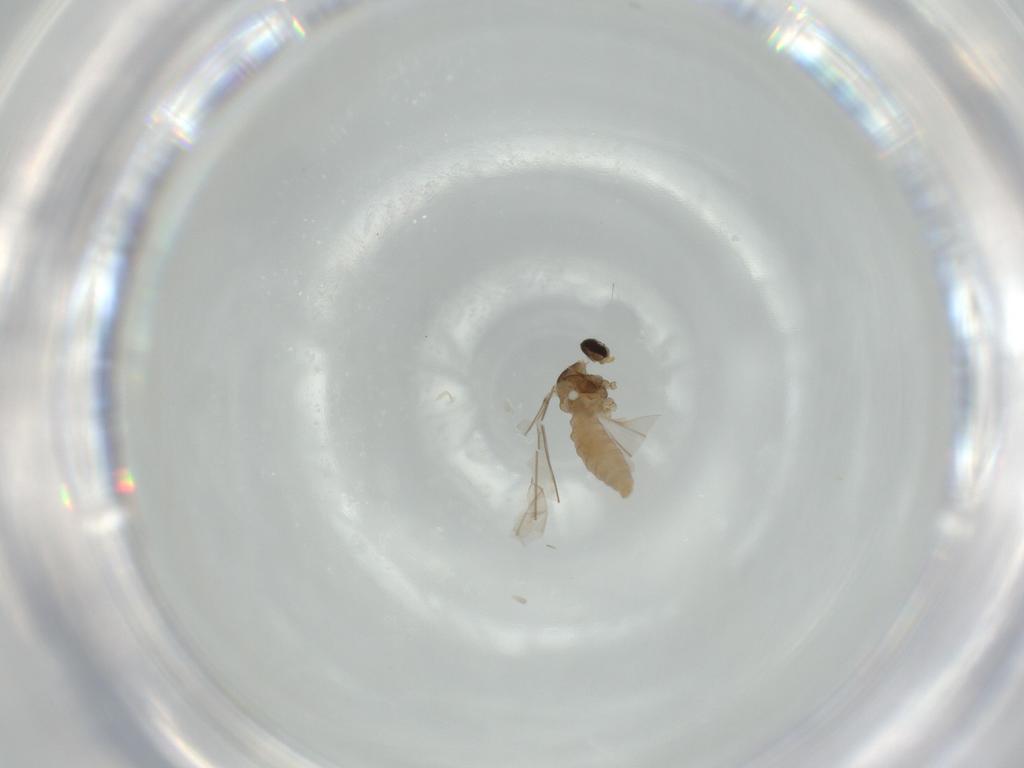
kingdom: Animalia
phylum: Arthropoda
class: Insecta
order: Diptera
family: Cecidomyiidae
